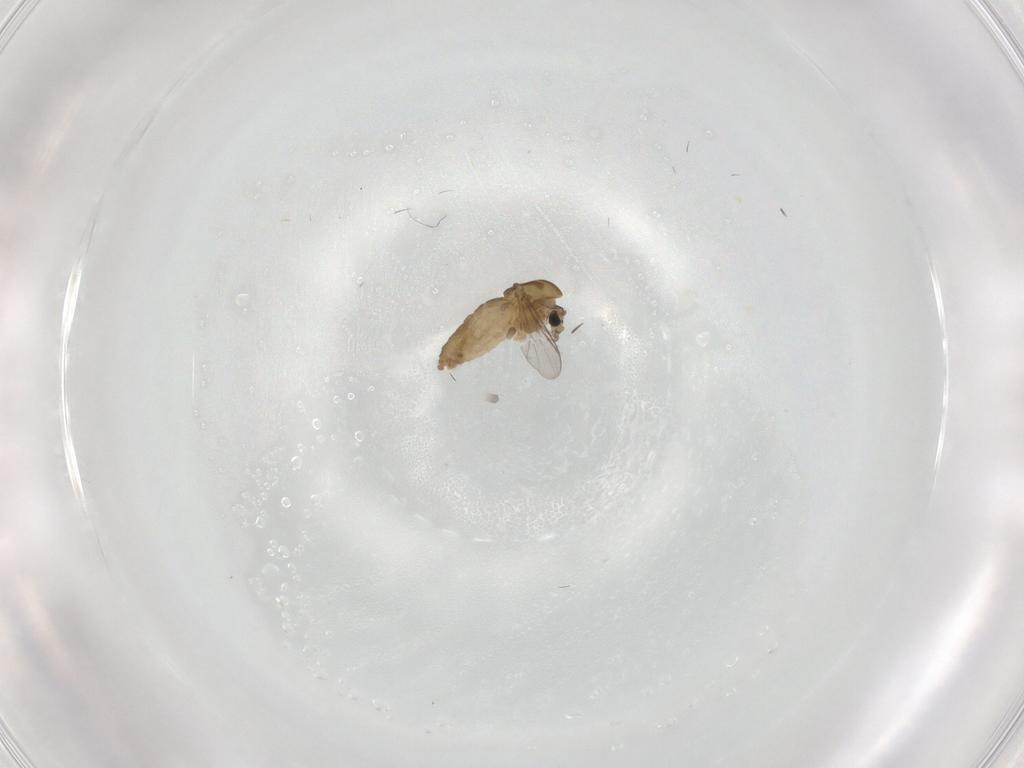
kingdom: Animalia
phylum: Arthropoda
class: Insecta
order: Diptera
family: Chironomidae
